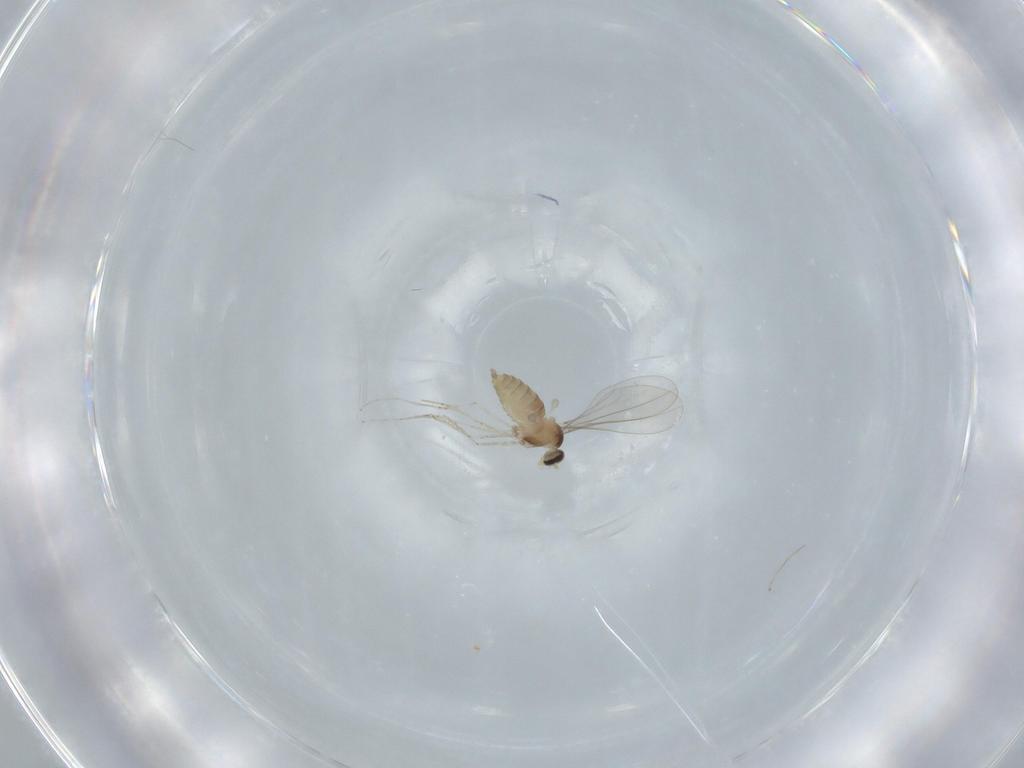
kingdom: Animalia
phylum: Arthropoda
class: Insecta
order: Diptera
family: Cecidomyiidae
